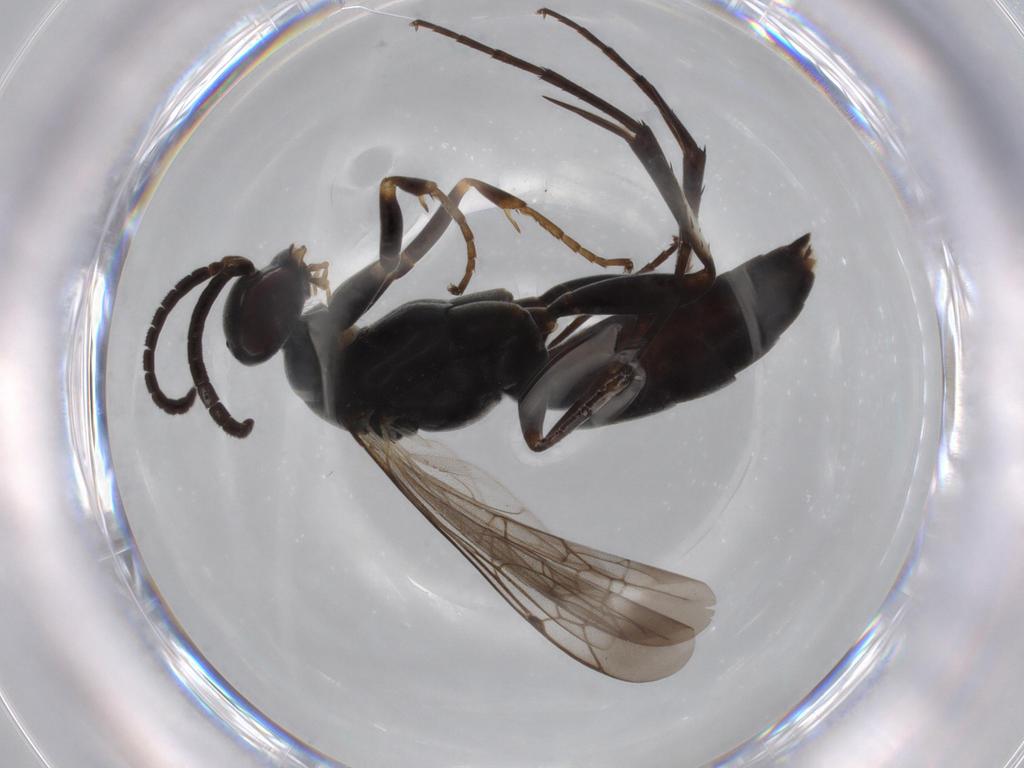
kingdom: Animalia
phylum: Arthropoda
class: Insecta
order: Hymenoptera
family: Pompilidae
